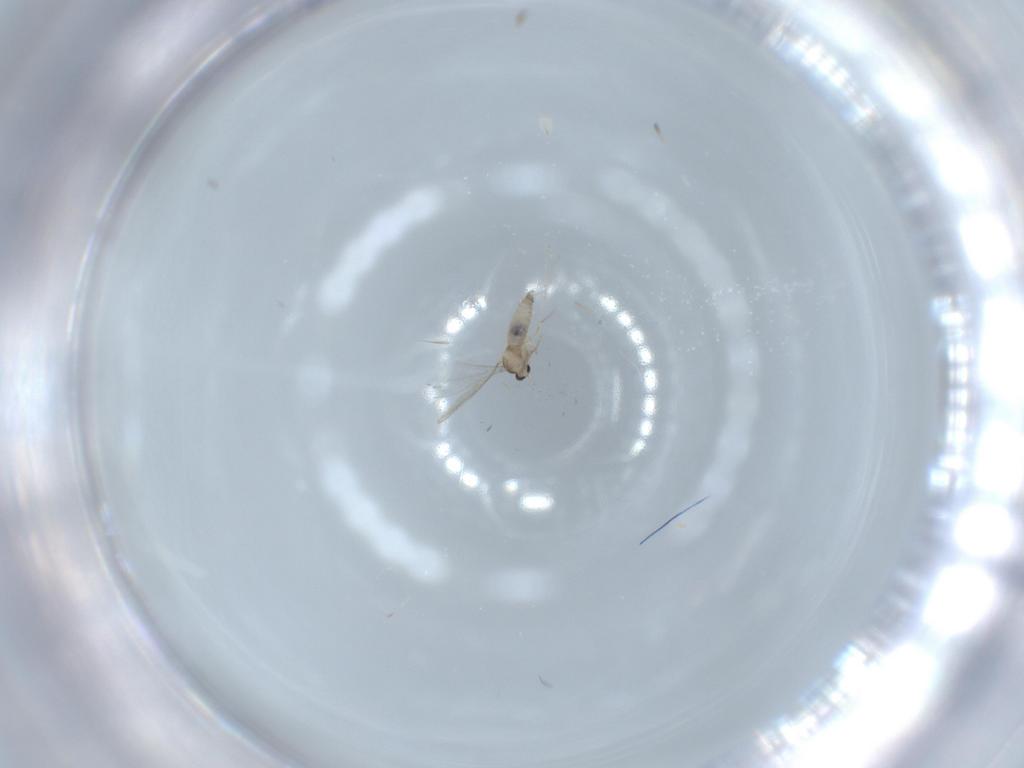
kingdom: Animalia
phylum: Arthropoda
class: Insecta
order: Diptera
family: Cecidomyiidae
